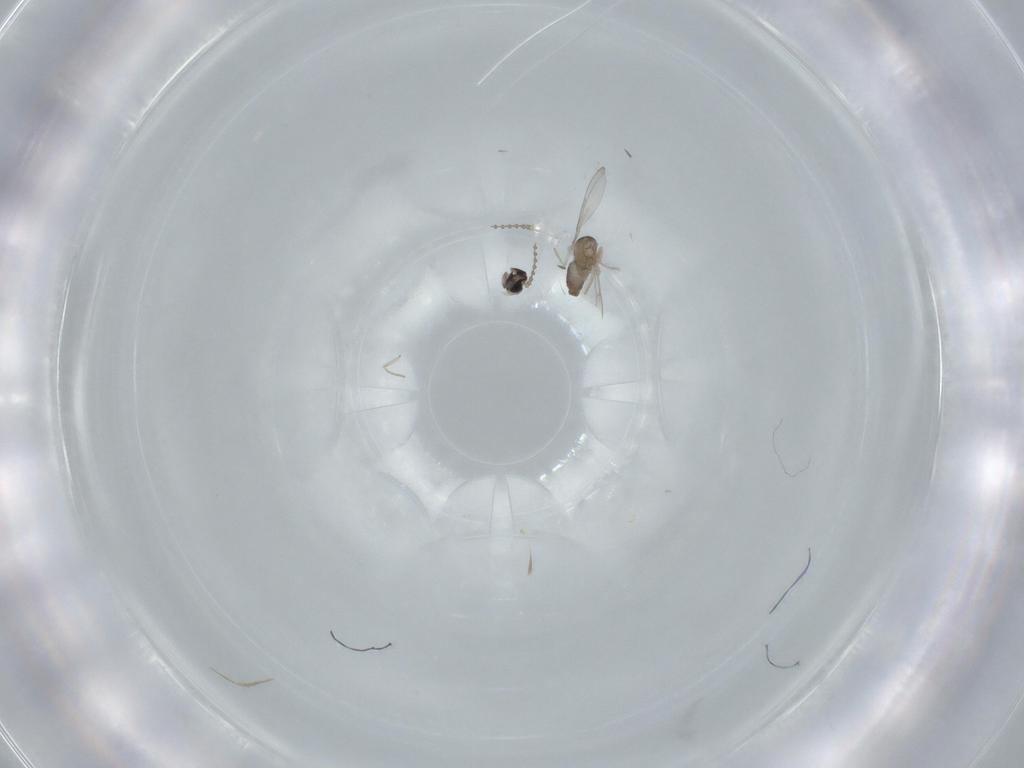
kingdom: Animalia
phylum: Arthropoda
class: Insecta
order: Diptera
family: Cecidomyiidae
